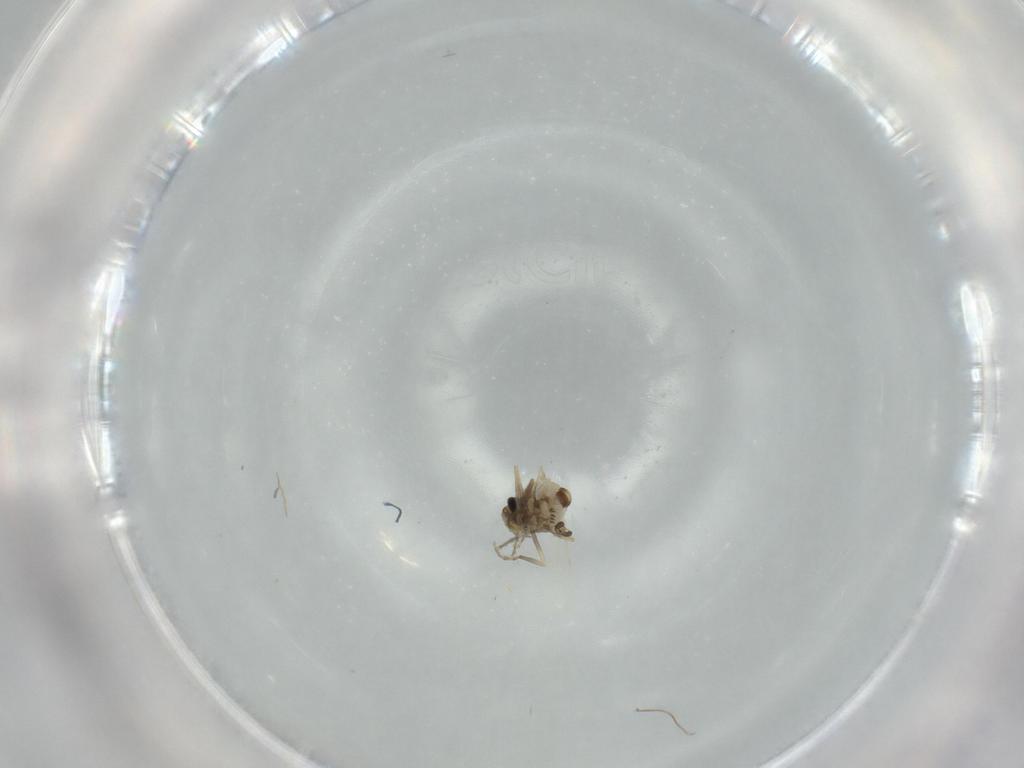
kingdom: Animalia
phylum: Arthropoda
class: Insecta
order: Diptera
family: Ceratopogonidae
